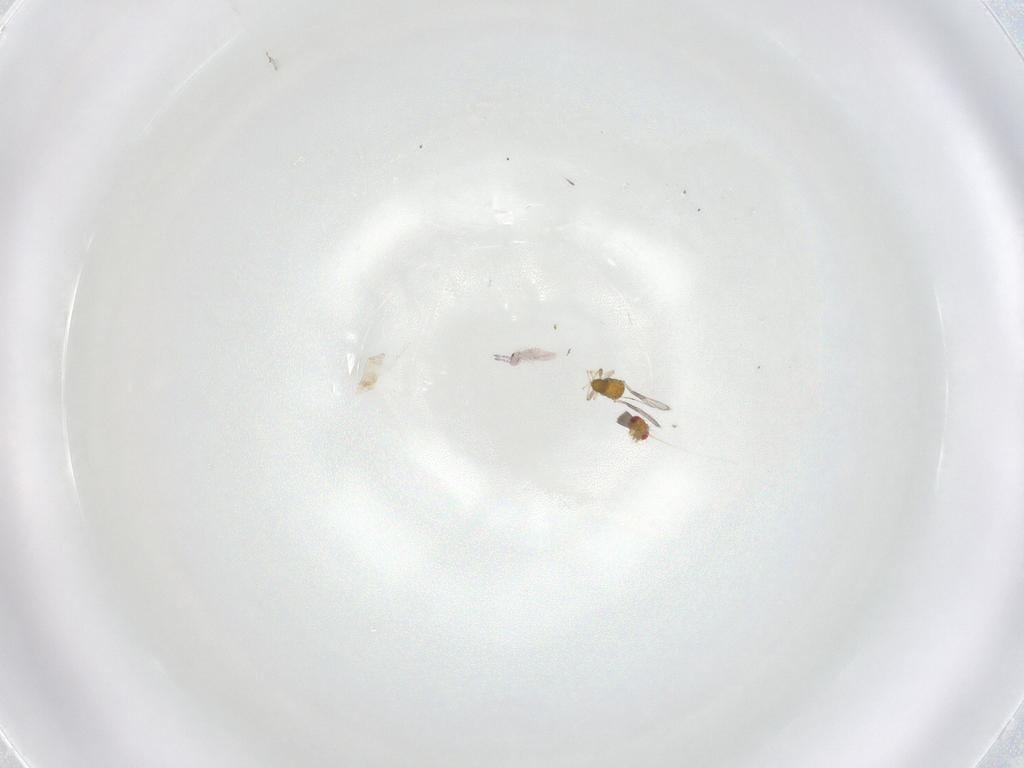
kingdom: Animalia
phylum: Arthropoda
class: Insecta
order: Hymenoptera
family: Trichogrammatidae
